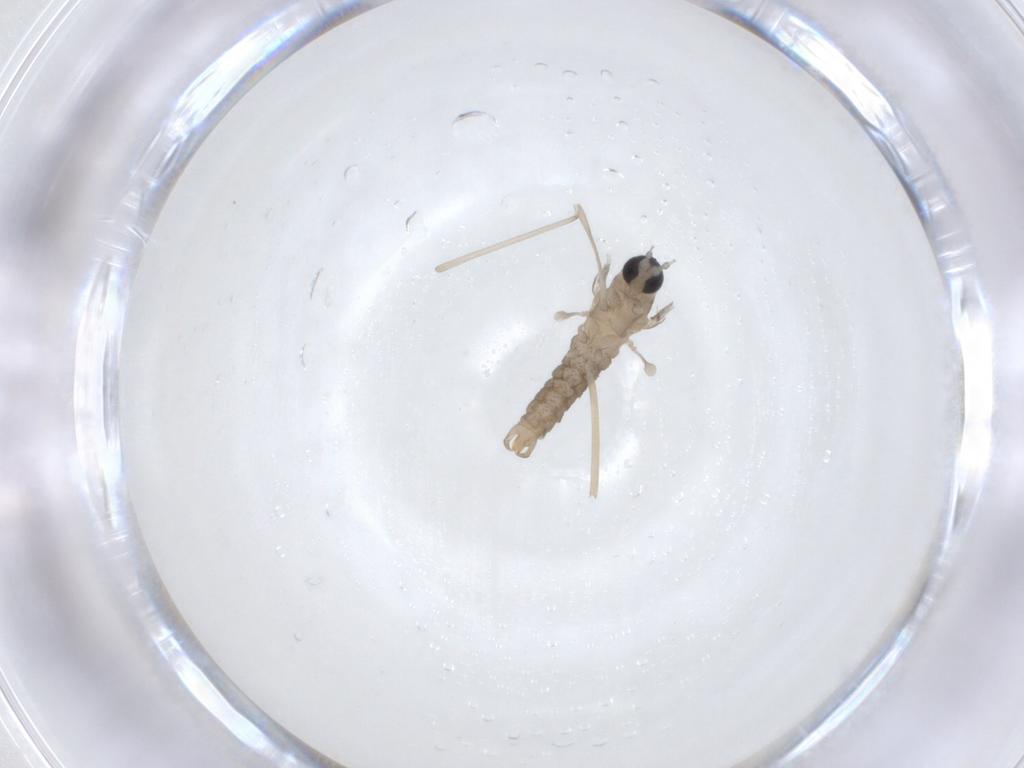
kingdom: Animalia
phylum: Arthropoda
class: Insecta
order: Diptera
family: Cecidomyiidae
